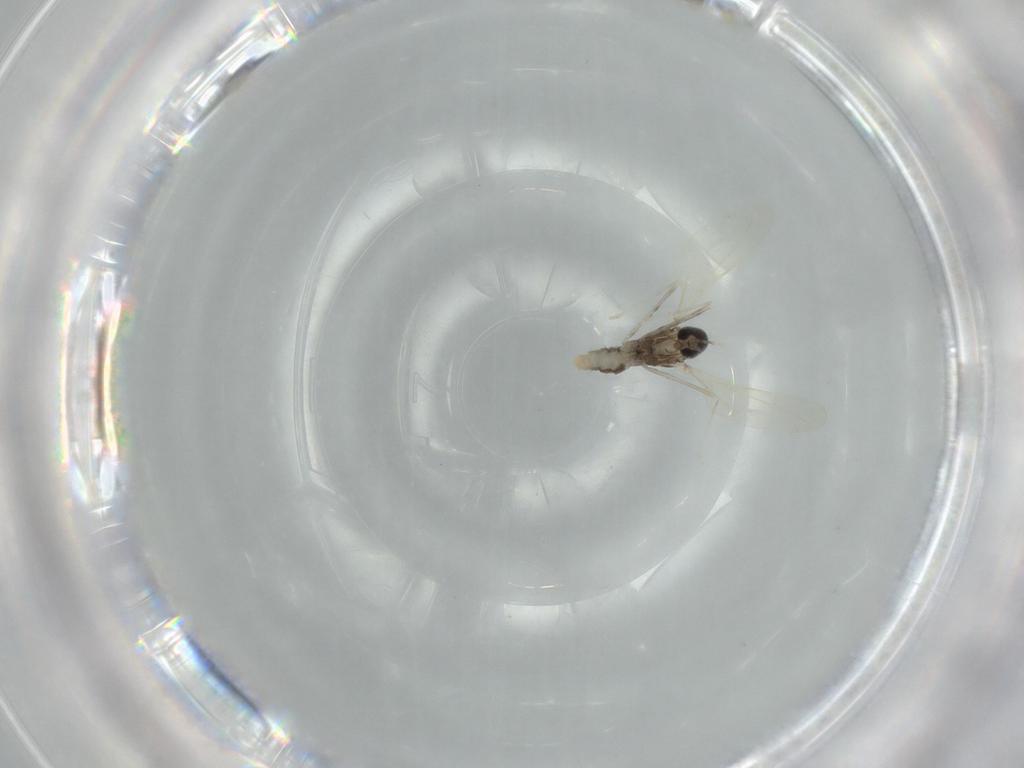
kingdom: Animalia
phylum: Arthropoda
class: Insecta
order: Diptera
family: Cecidomyiidae
